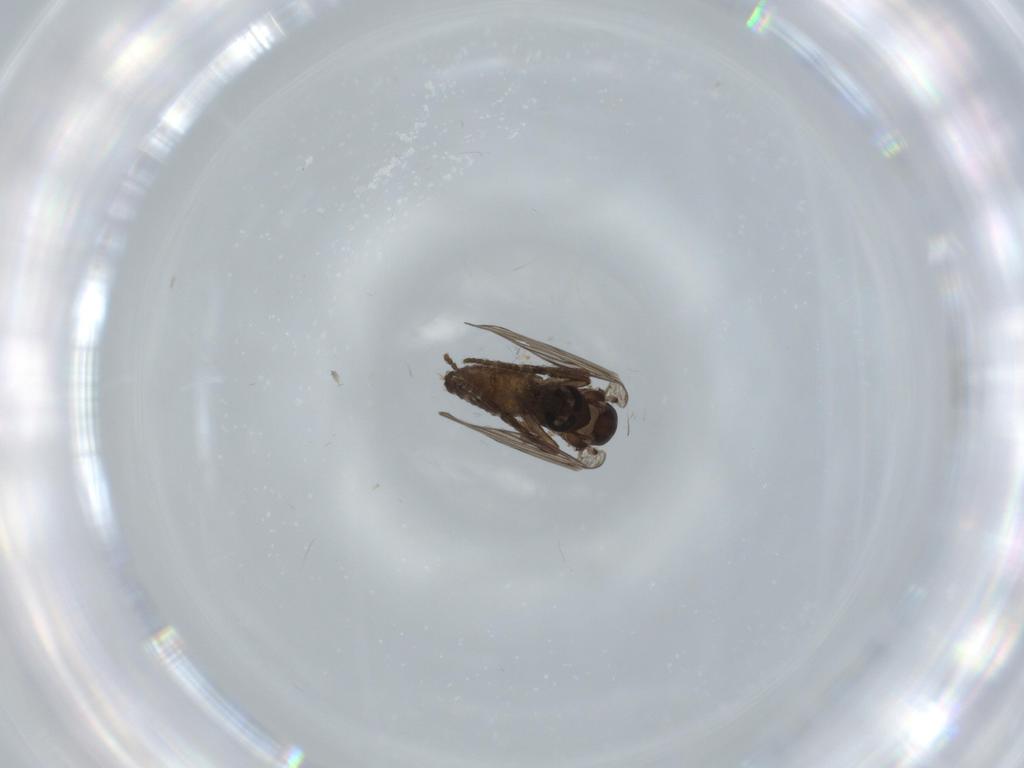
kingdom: Animalia
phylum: Arthropoda
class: Insecta
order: Diptera
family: Psychodidae
